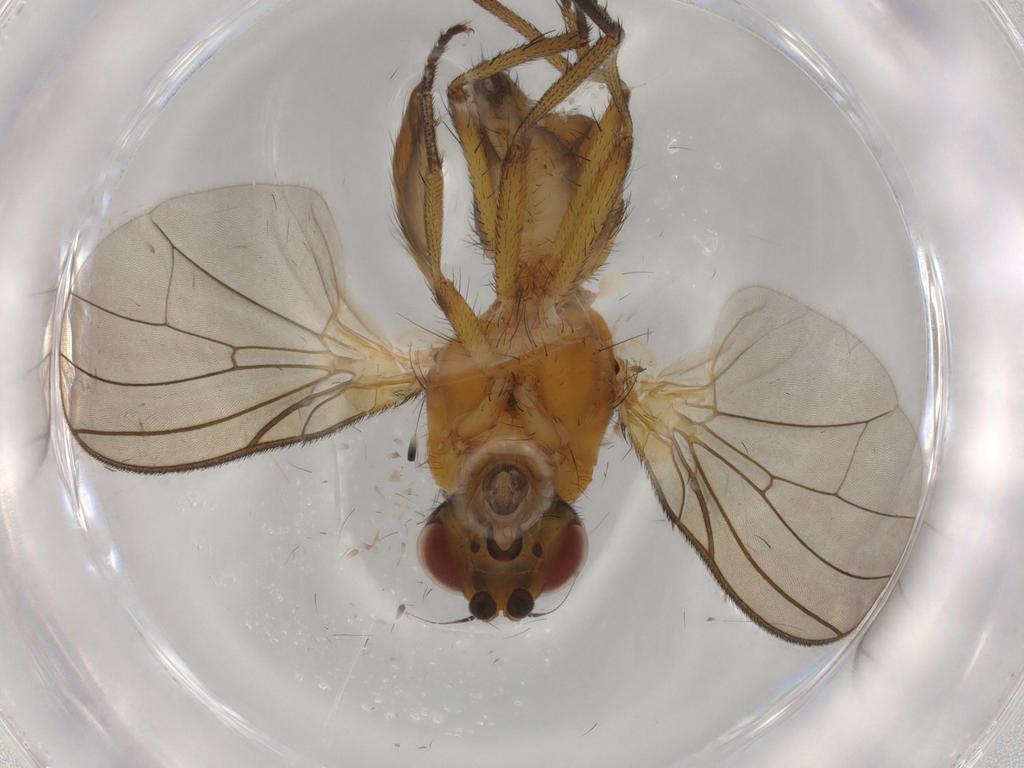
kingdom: Animalia
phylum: Arthropoda
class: Insecta
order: Diptera
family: Anthomyiidae
